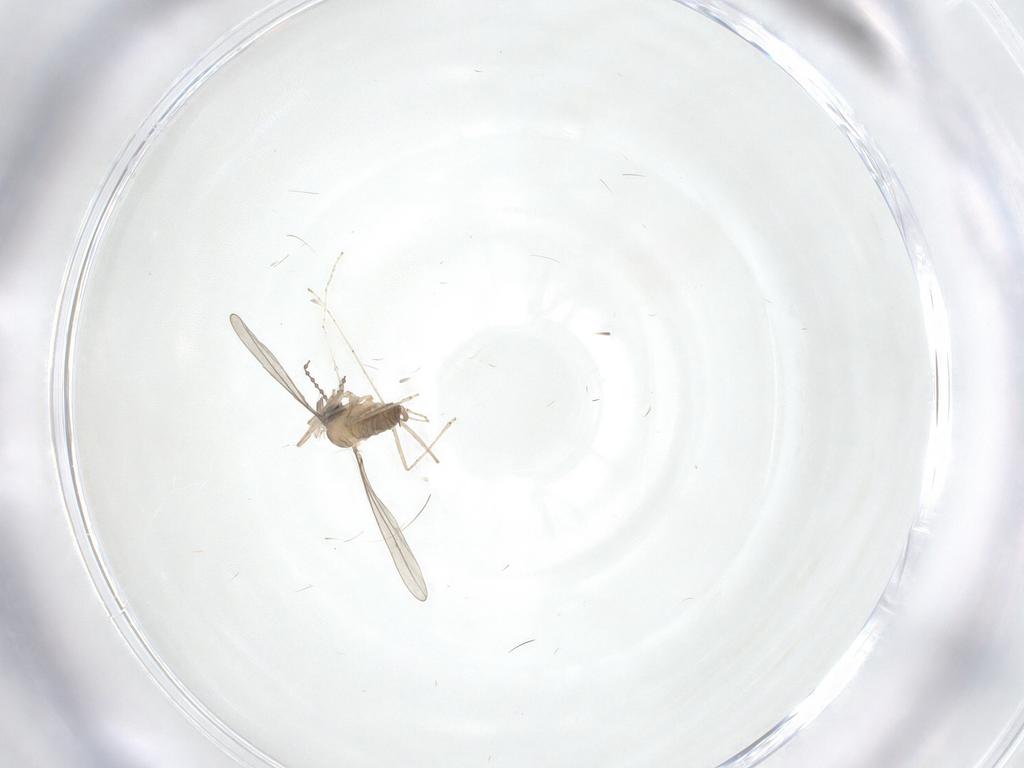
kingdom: Animalia
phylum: Arthropoda
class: Insecta
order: Diptera
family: Cecidomyiidae
